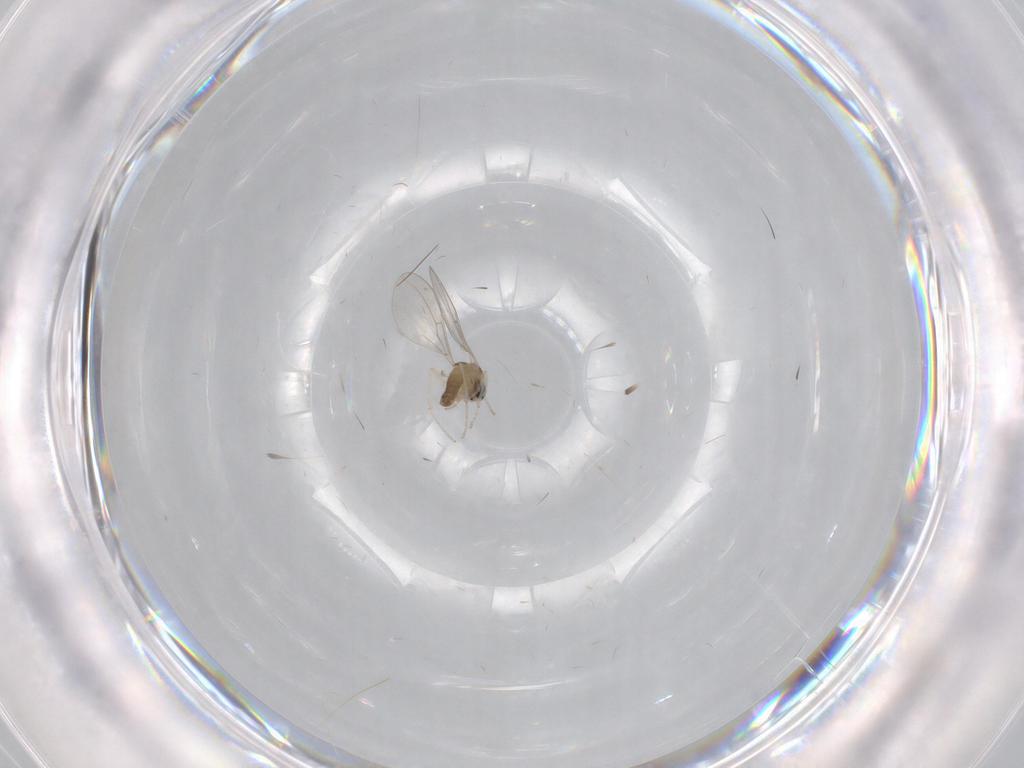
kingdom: Animalia
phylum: Arthropoda
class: Insecta
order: Diptera
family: Cecidomyiidae
